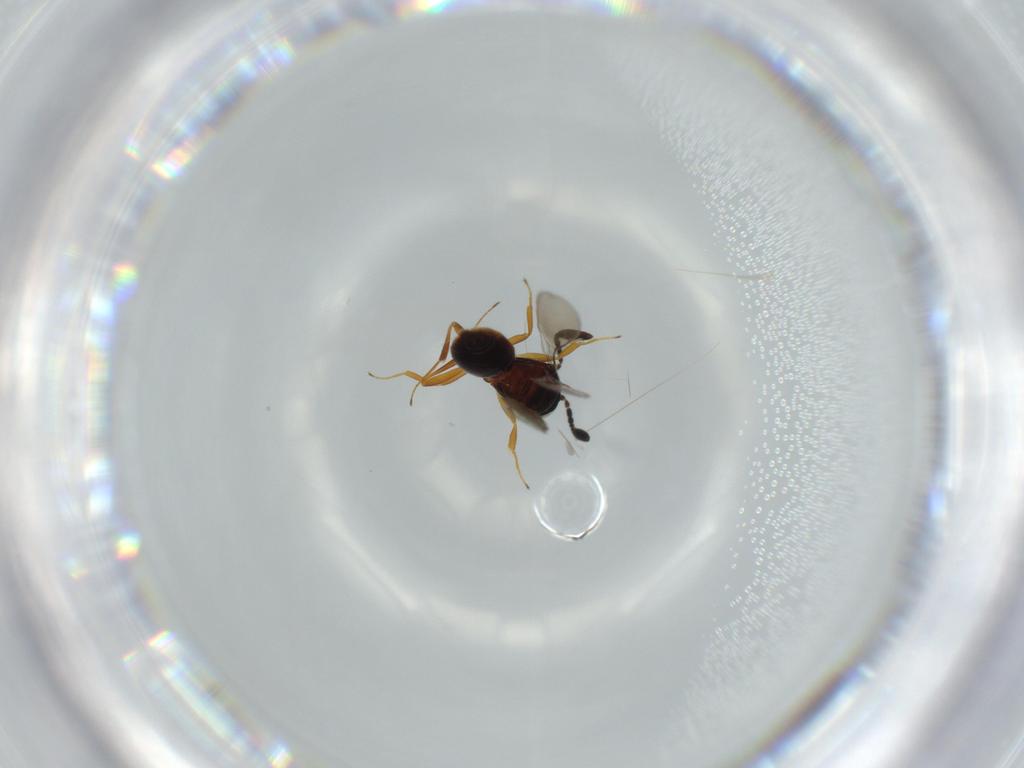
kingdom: Animalia
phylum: Arthropoda
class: Insecta
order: Hymenoptera
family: Scelionidae
